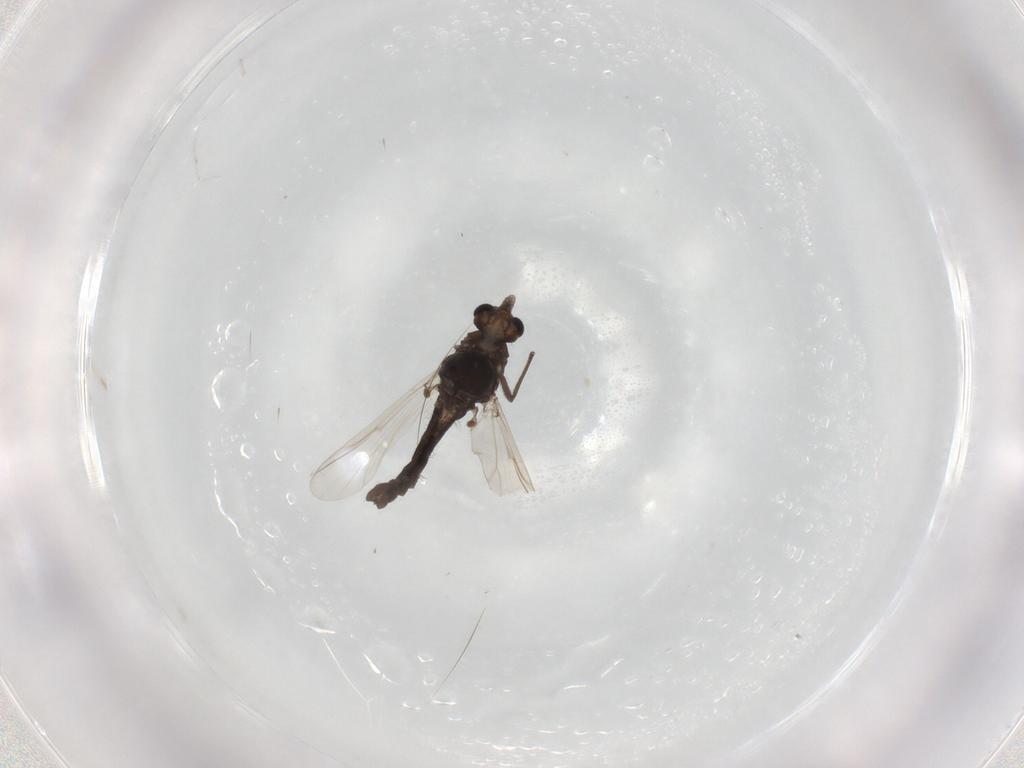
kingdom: Animalia
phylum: Arthropoda
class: Insecta
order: Diptera
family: Chironomidae
